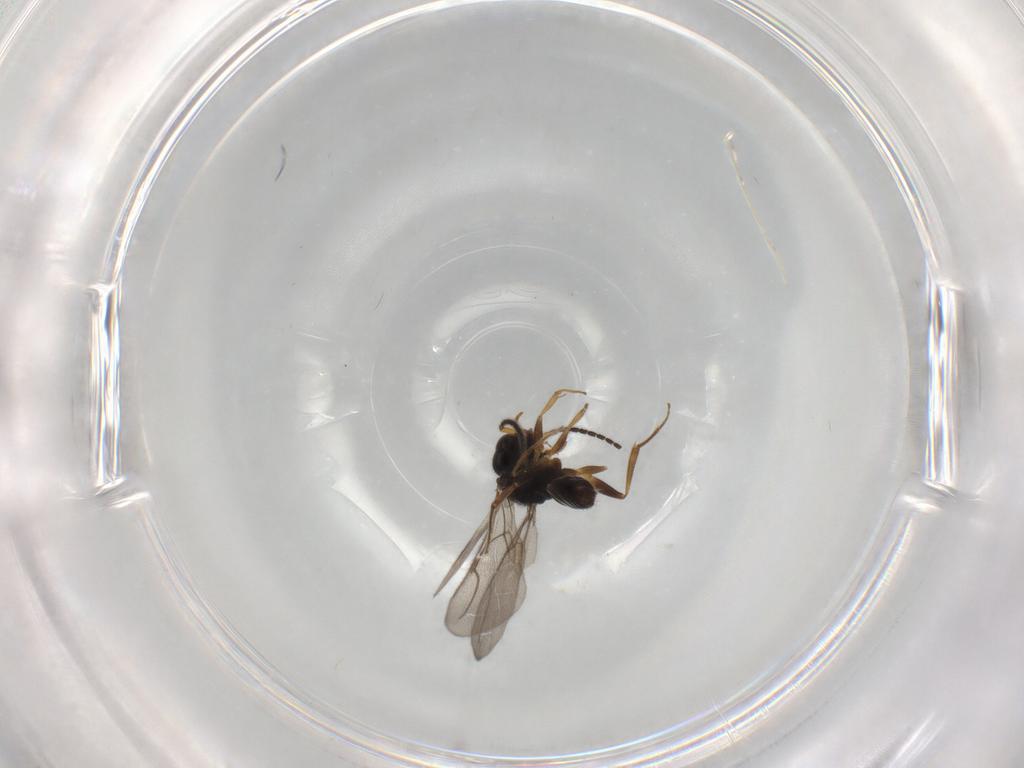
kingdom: Animalia
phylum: Arthropoda
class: Insecta
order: Hymenoptera
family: Bethylidae
